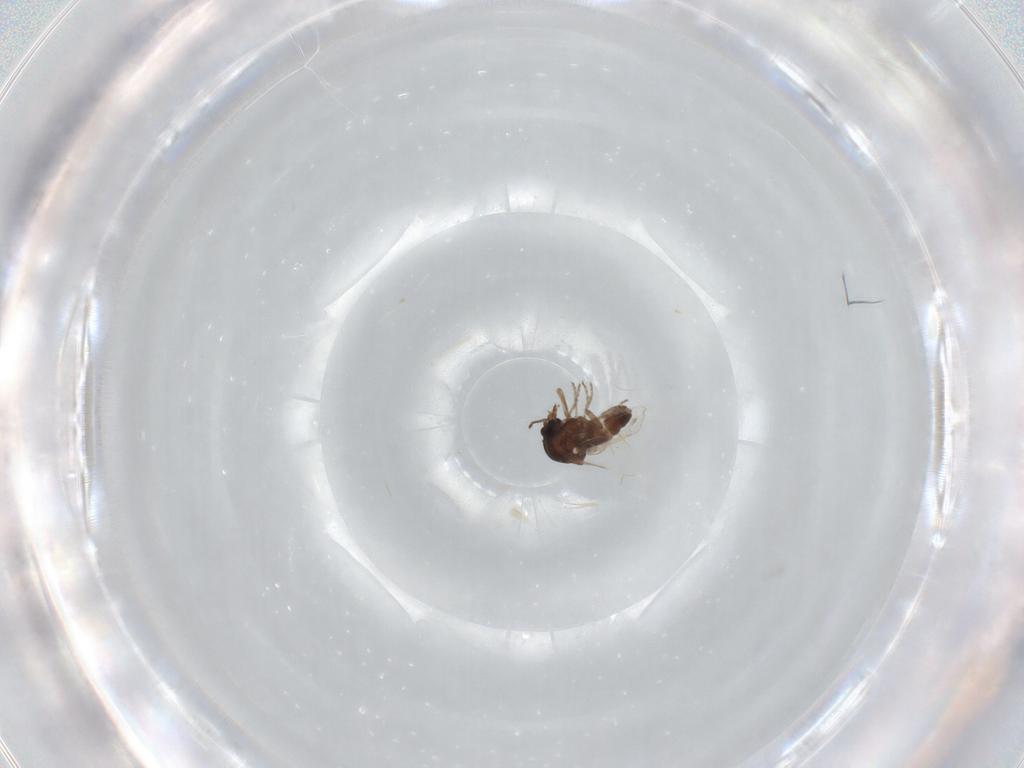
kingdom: Animalia
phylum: Arthropoda
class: Insecta
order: Diptera
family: Ceratopogonidae
